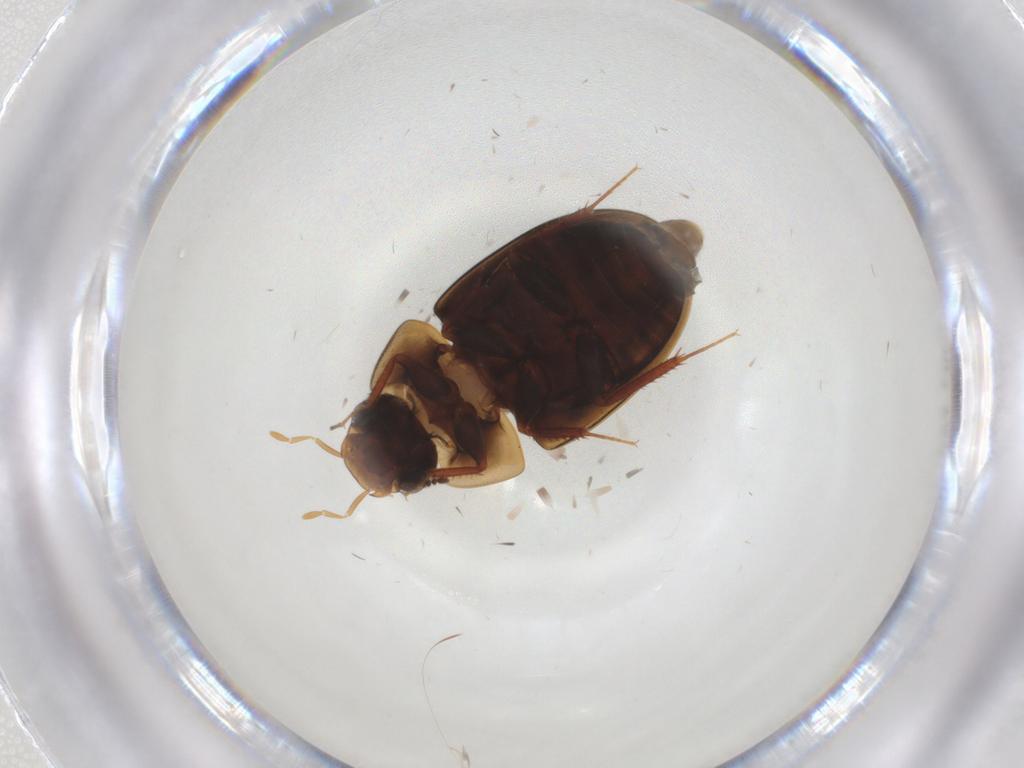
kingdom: Animalia
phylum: Arthropoda
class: Insecta
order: Coleoptera
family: Hydrophilidae
